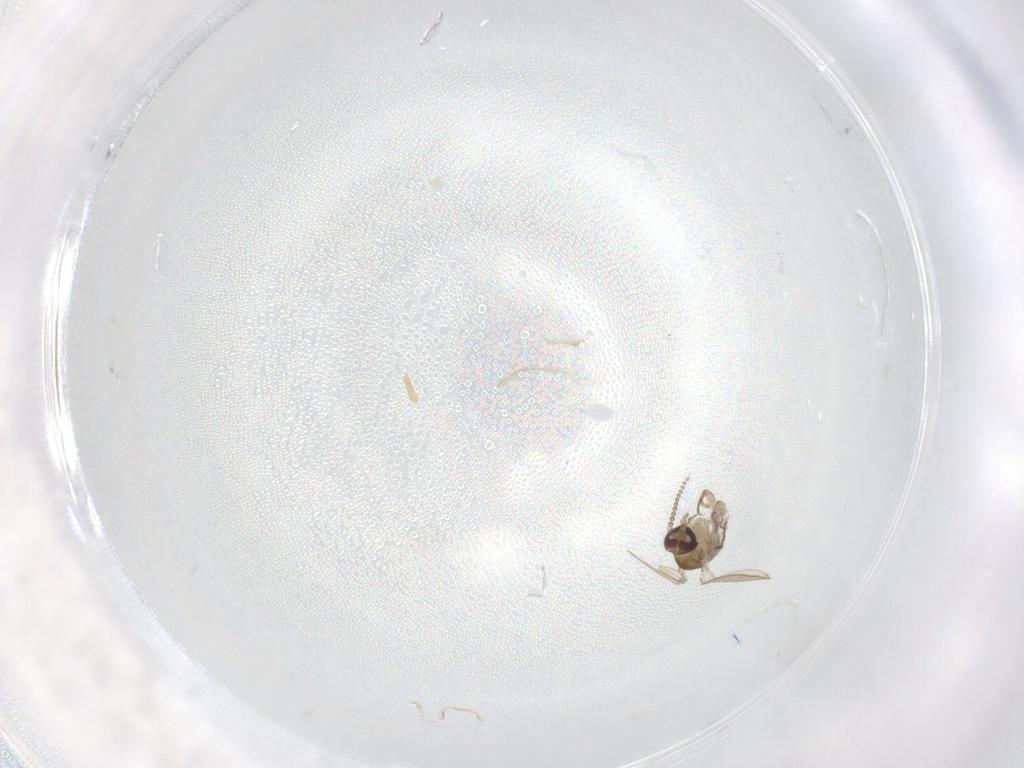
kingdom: Animalia
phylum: Arthropoda
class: Insecta
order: Diptera
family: Psychodidae
